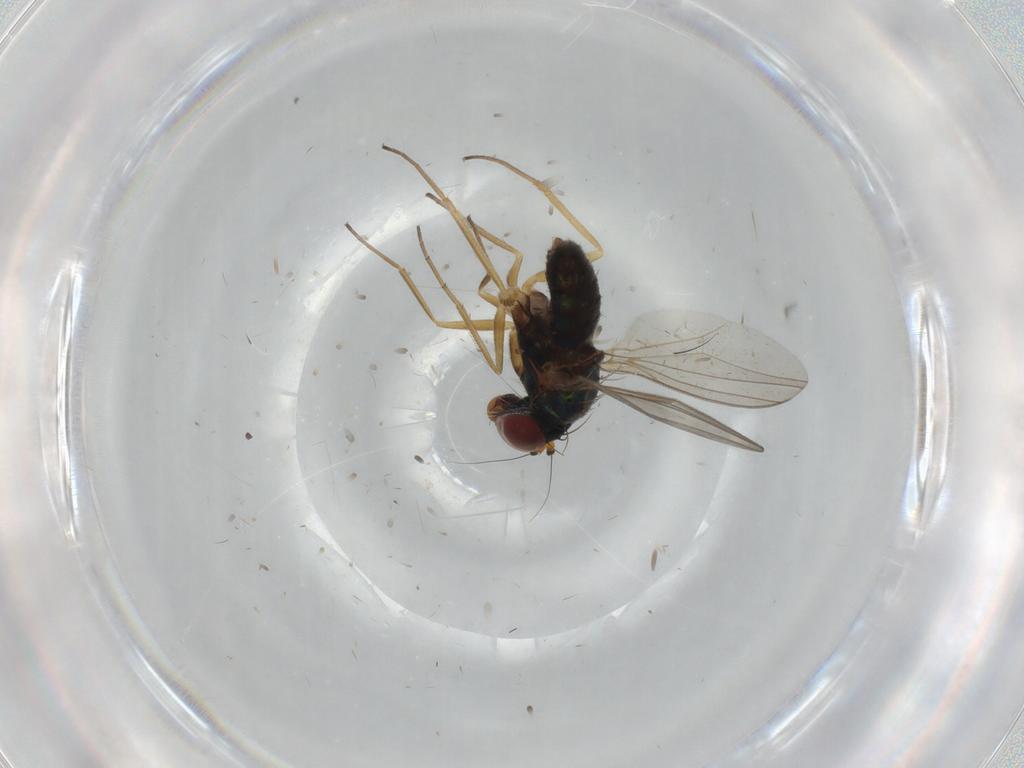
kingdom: Animalia
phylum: Arthropoda
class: Insecta
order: Diptera
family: Dolichopodidae
